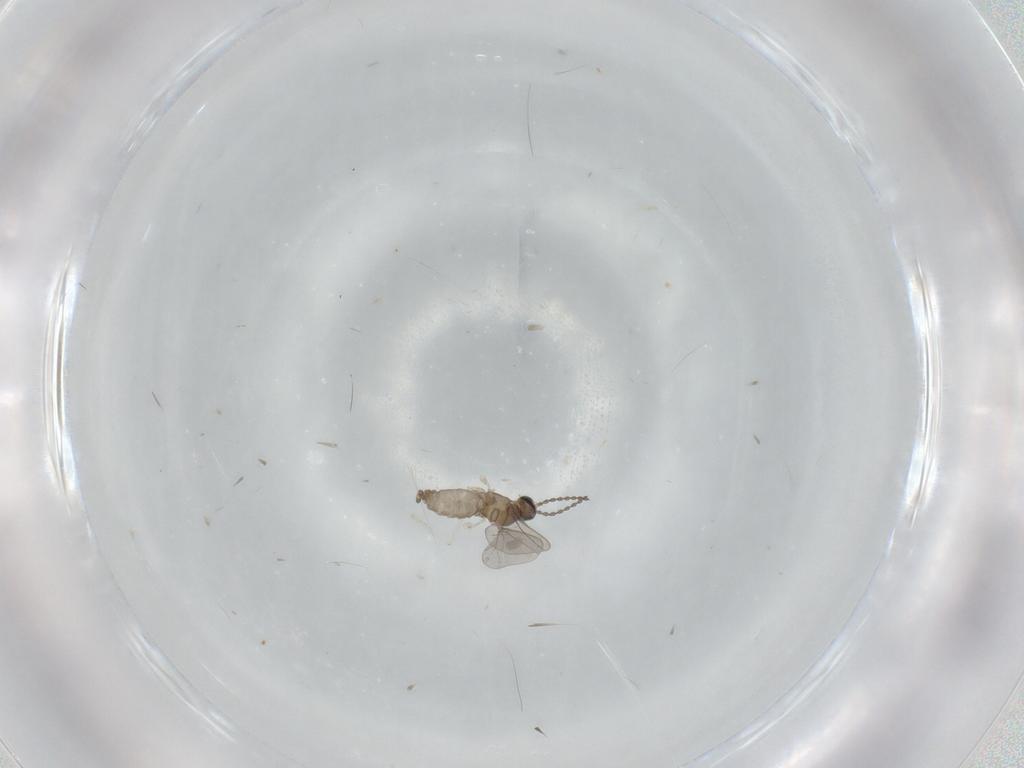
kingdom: Animalia
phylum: Arthropoda
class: Insecta
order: Diptera
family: Cecidomyiidae
